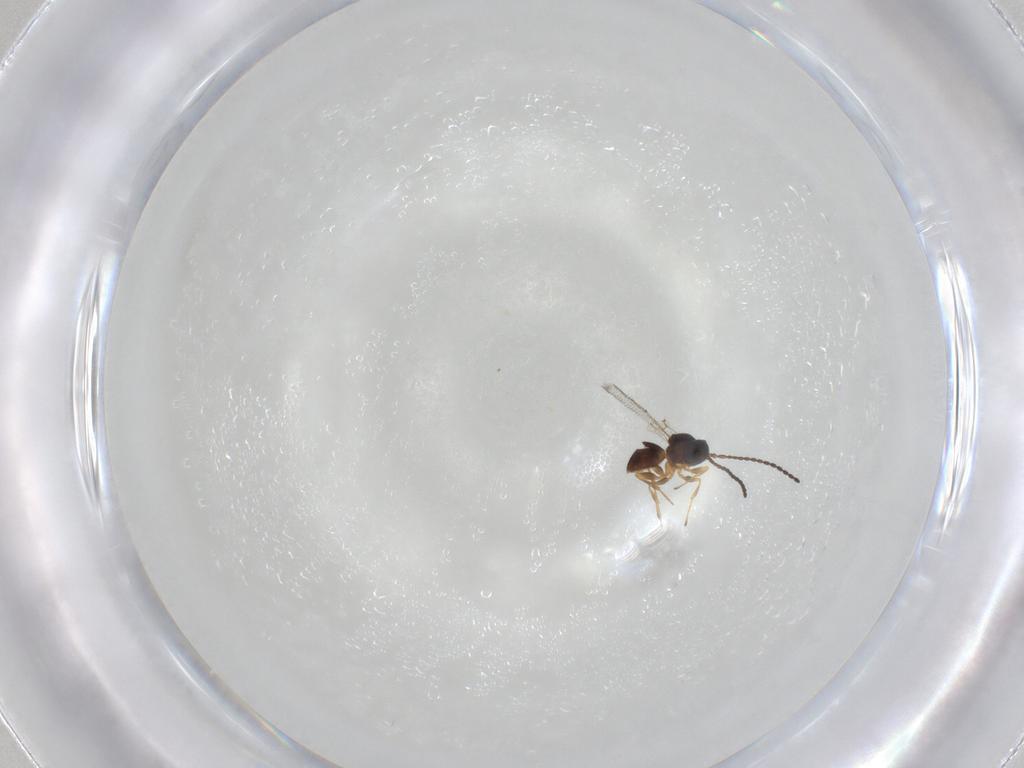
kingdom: Animalia
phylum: Arthropoda
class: Insecta
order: Hymenoptera
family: Figitidae
